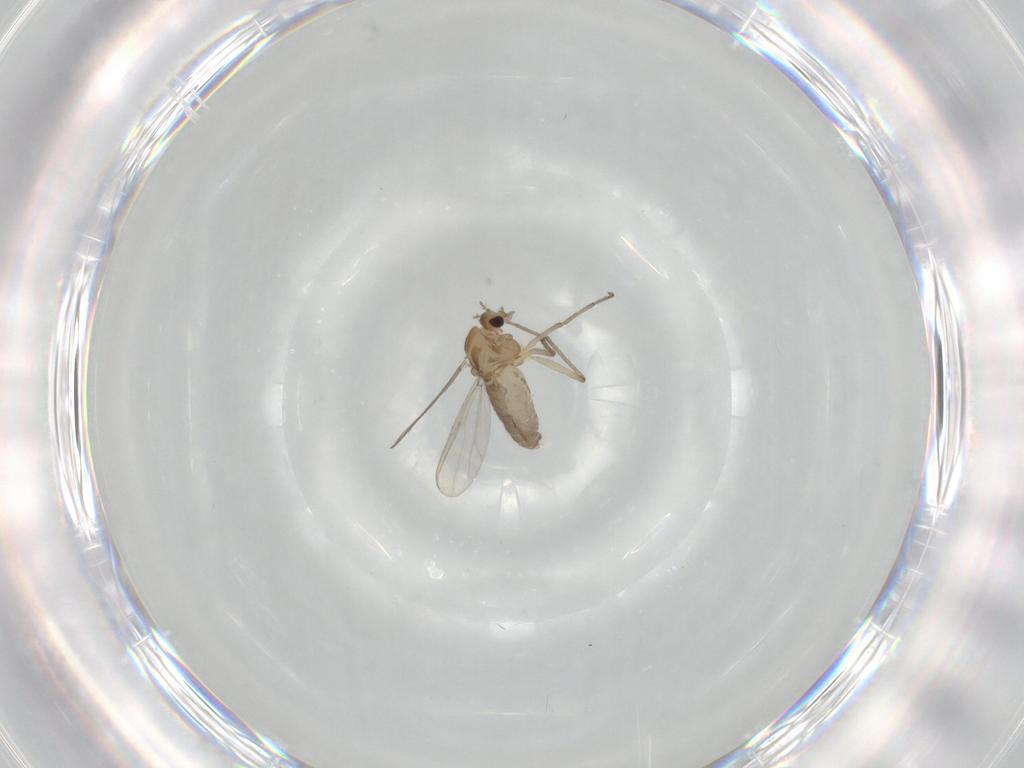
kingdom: Animalia
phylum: Arthropoda
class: Insecta
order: Diptera
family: Chironomidae
